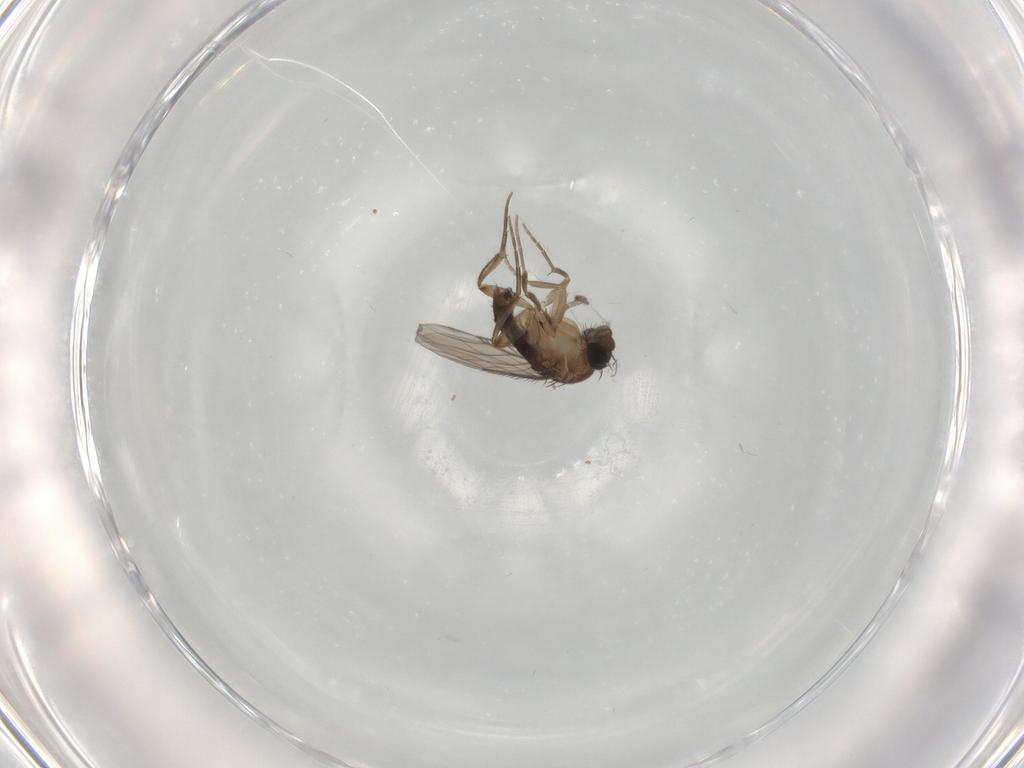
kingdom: Animalia
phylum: Arthropoda
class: Insecta
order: Diptera
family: Phoridae
